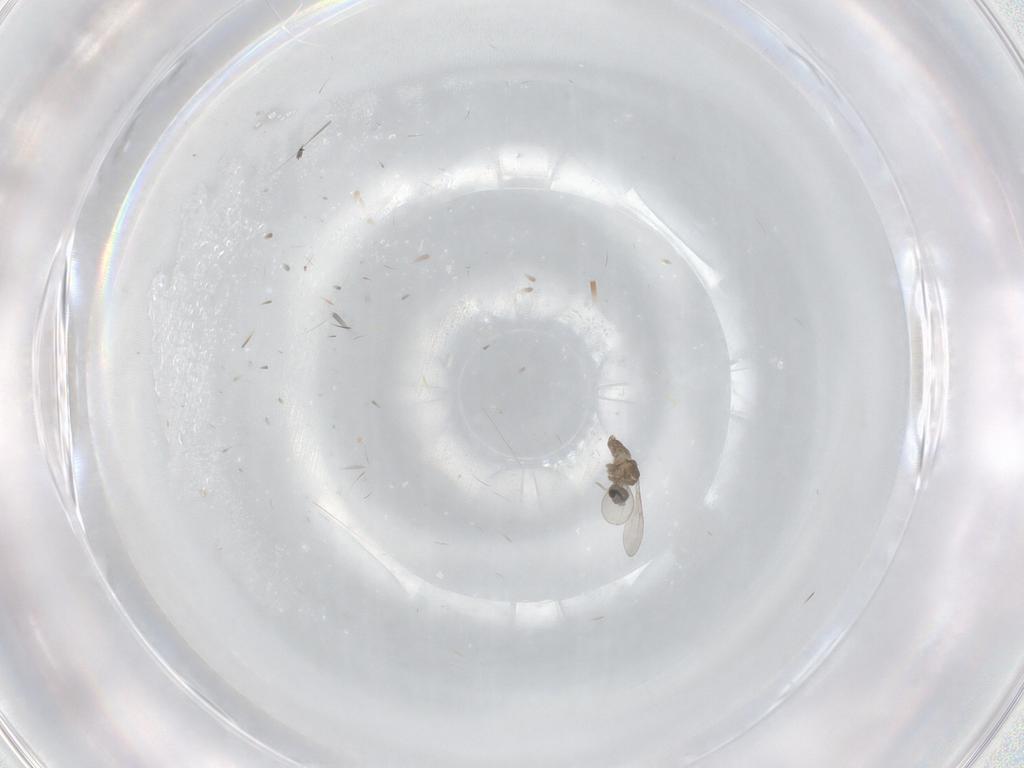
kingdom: Animalia
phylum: Arthropoda
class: Insecta
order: Diptera
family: Cecidomyiidae
